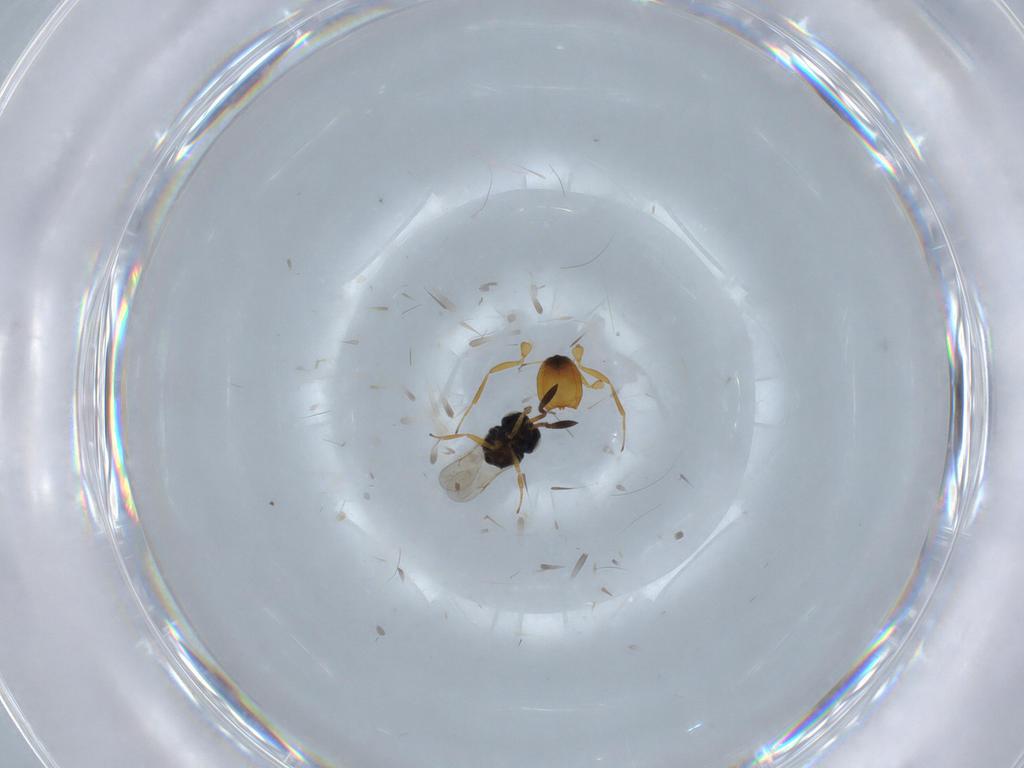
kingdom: Animalia
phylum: Arthropoda
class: Insecta
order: Hymenoptera
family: Scelionidae
